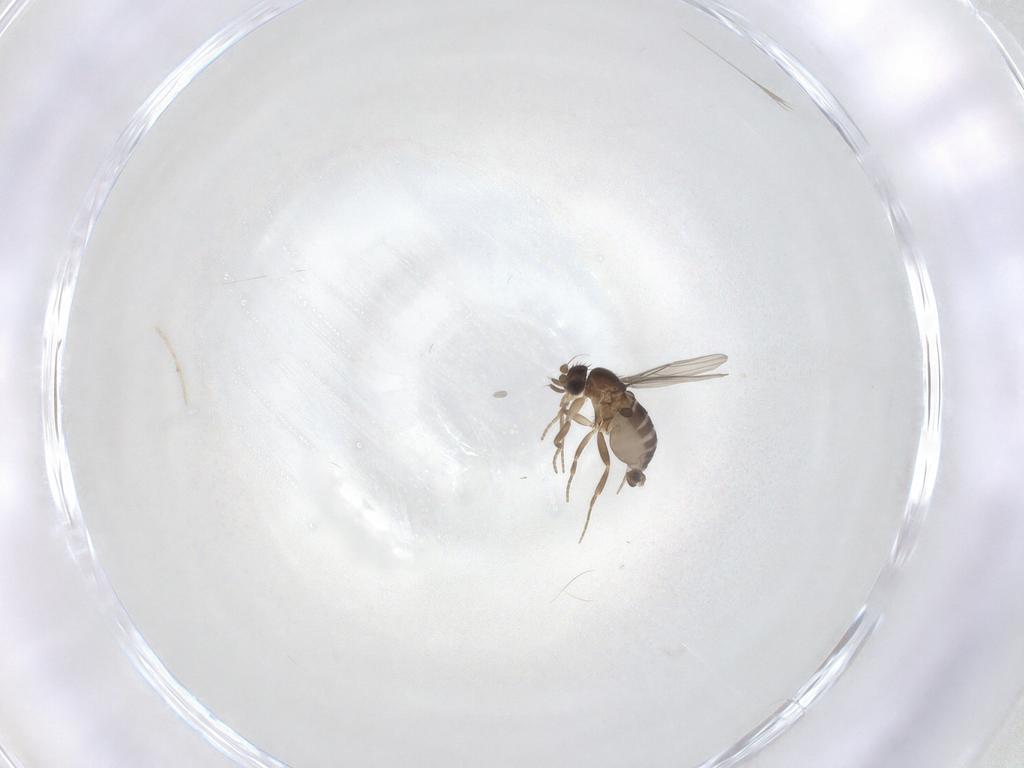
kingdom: Animalia
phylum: Arthropoda
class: Insecta
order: Diptera
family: Phoridae
